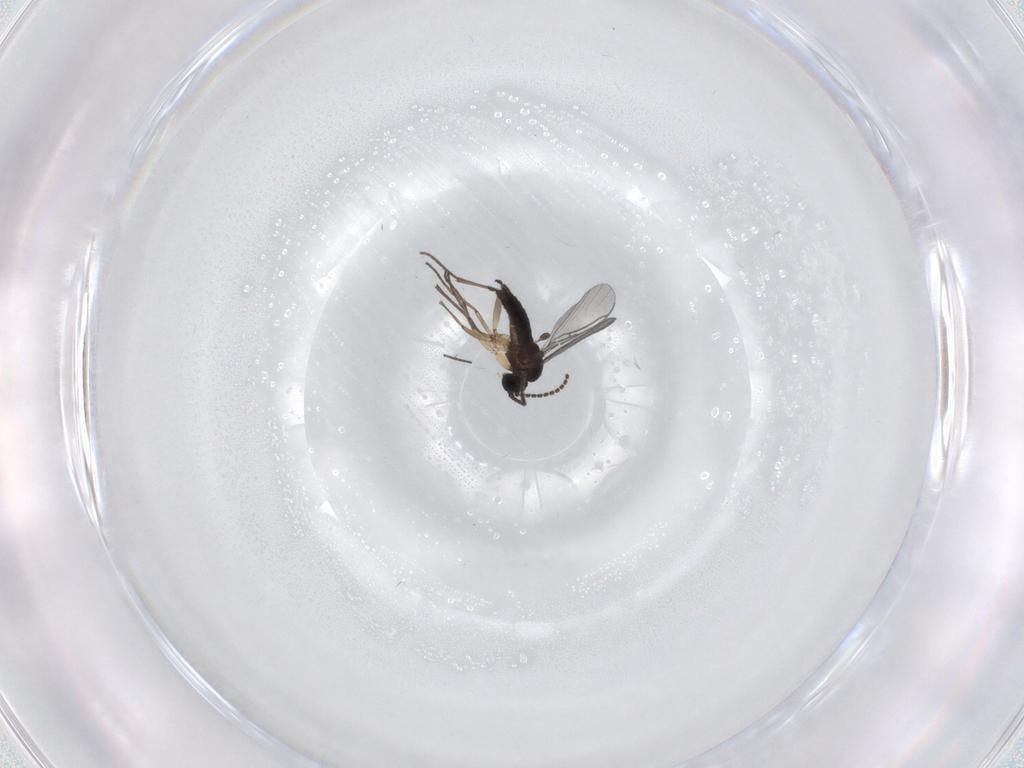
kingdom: Animalia
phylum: Arthropoda
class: Insecta
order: Diptera
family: Sciaridae
